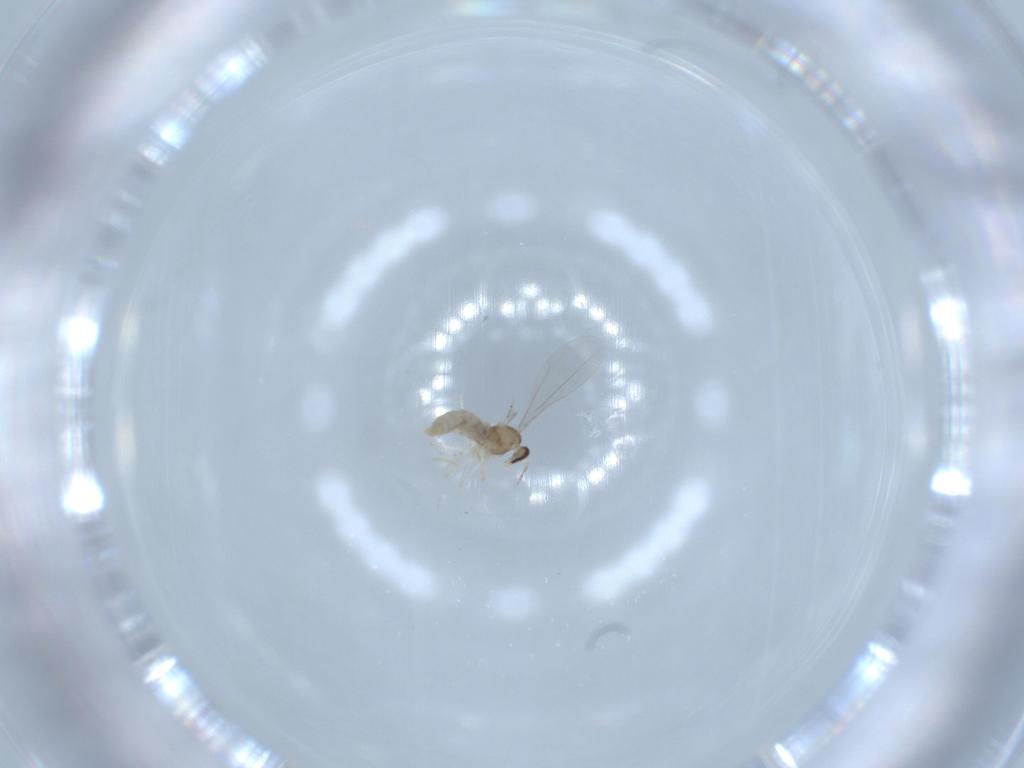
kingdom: Animalia
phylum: Arthropoda
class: Insecta
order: Diptera
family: Cecidomyiidae
